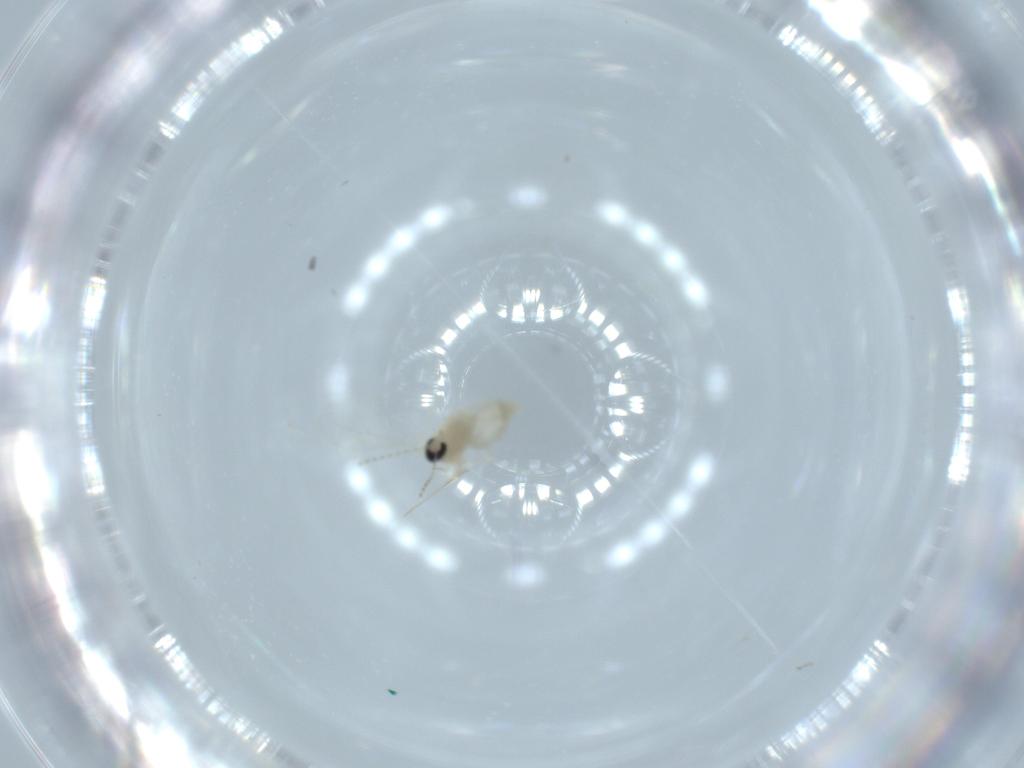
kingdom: Animalia
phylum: Arthropoda
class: Insecta
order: Diptera
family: Cecidomyiidae
